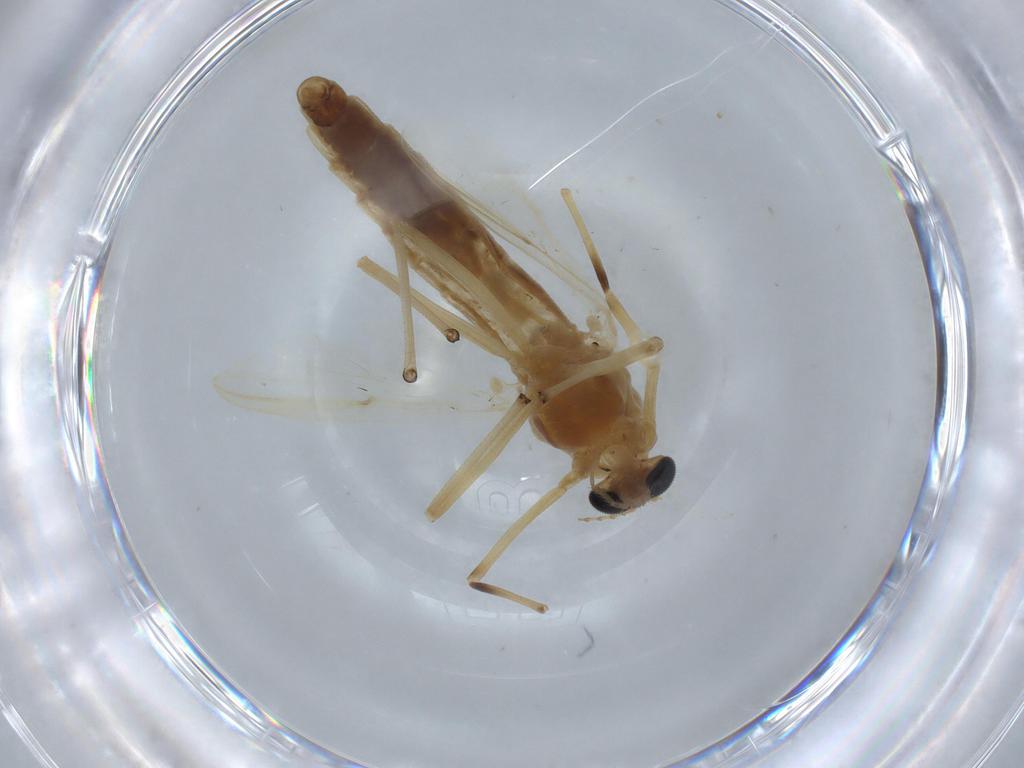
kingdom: Animalia
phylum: Arthropoda
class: Insecta
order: Diptera
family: Chironomidae
